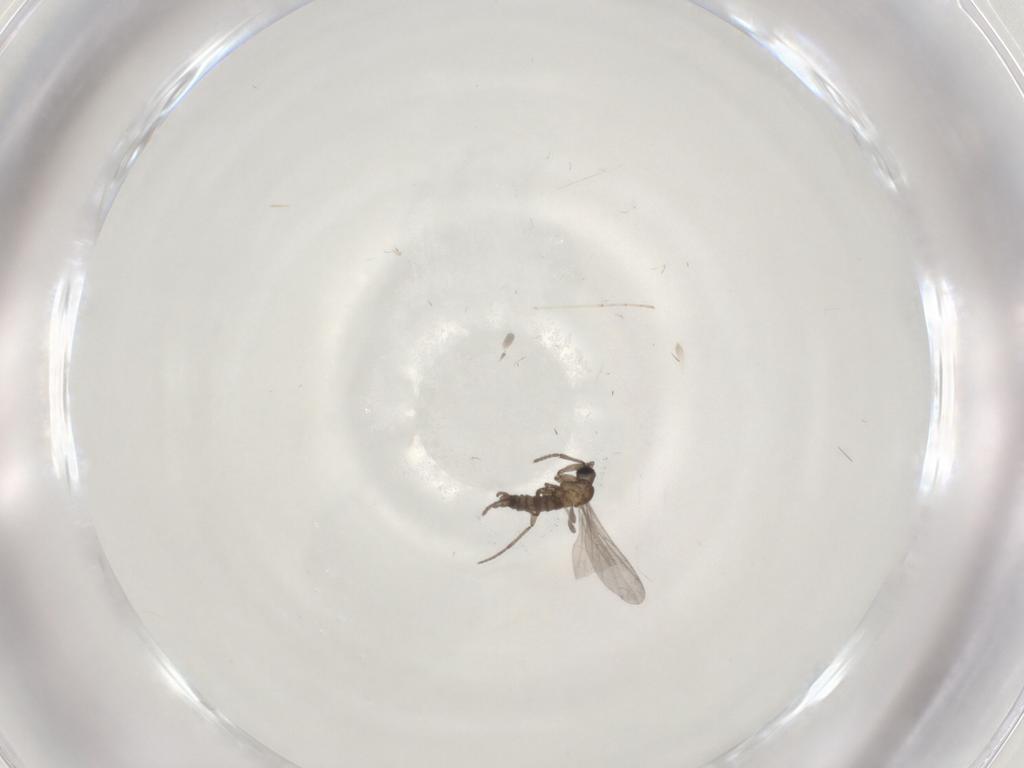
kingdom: Animalia
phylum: Arthropoda
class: Insecta
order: Diptera
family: Cecidomyiidae
